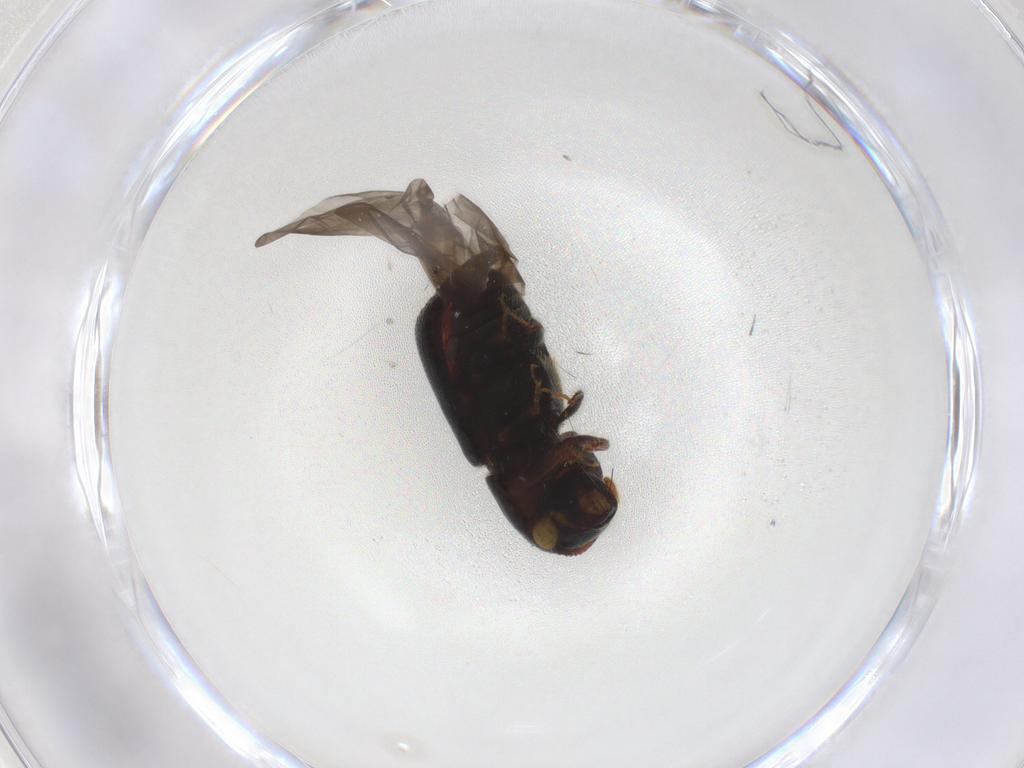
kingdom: Animalia
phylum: Arthropoda
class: Insecta
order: Coleoptera
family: Curculionidae
